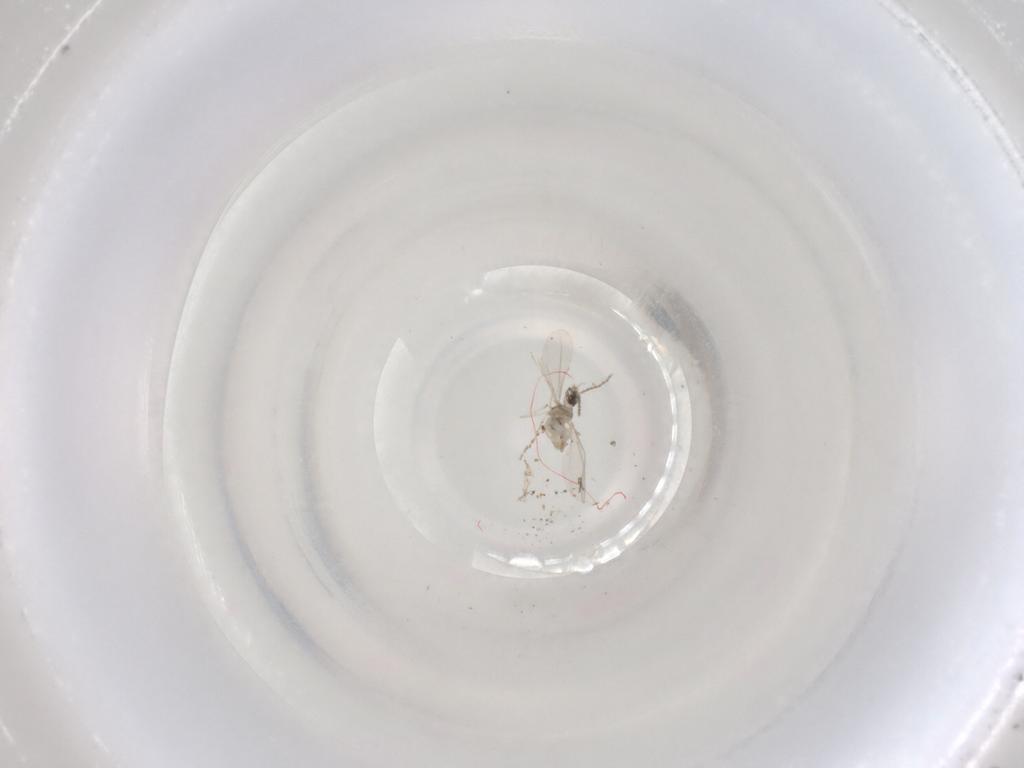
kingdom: Animalia
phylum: Arthropoda
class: Insecta
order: Diptera
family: Cecidomyiidae
